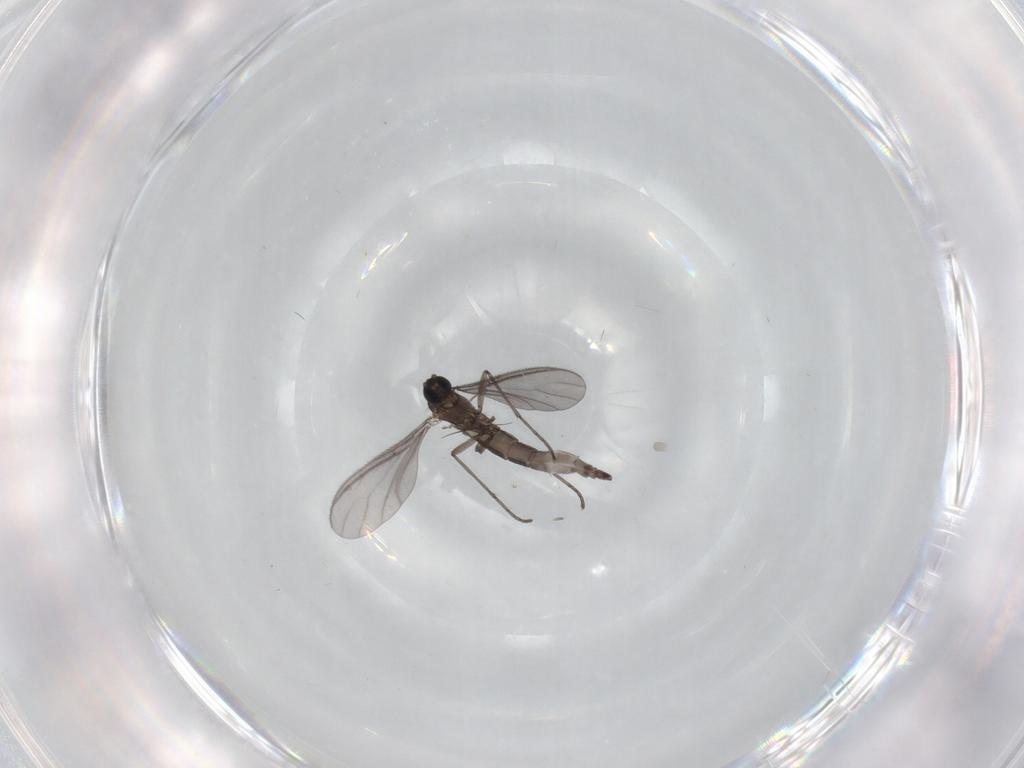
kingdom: Animalia
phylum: Arthropoda
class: Insecta
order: Diptera
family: Sciaridae
